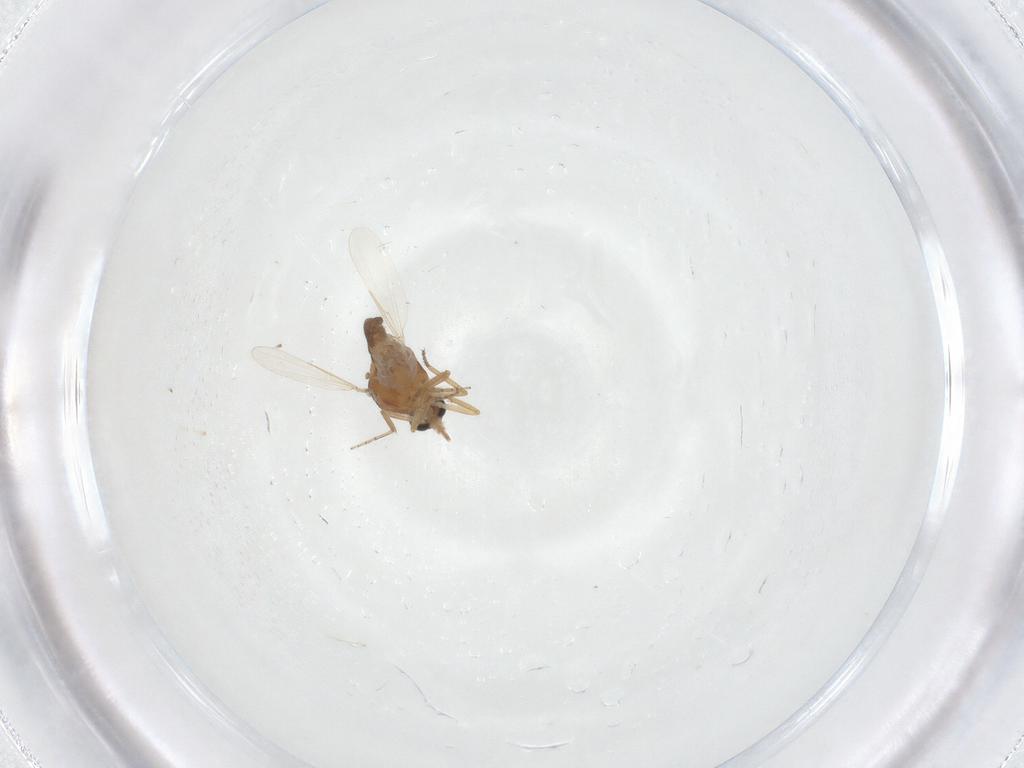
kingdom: Animalia
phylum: Arthropoda
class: Insecta
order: Diptera
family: Ceratopogonidae
